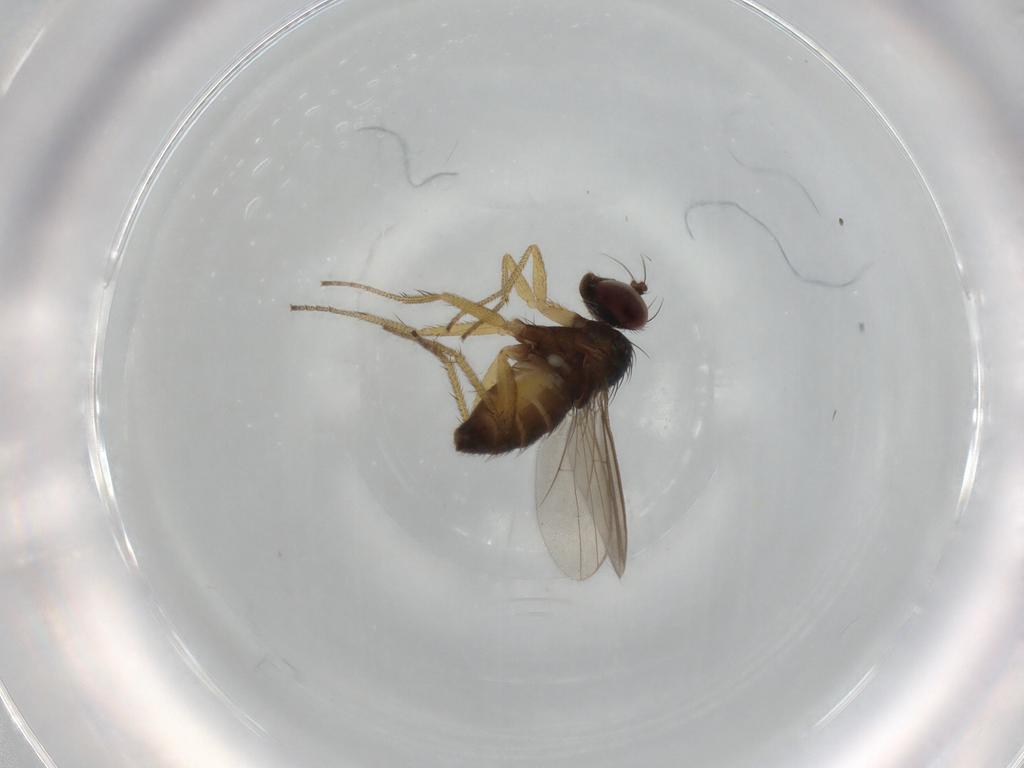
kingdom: Animalia
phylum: Arthropoda
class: Insecta
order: Diptera
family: Dolichopodidae
